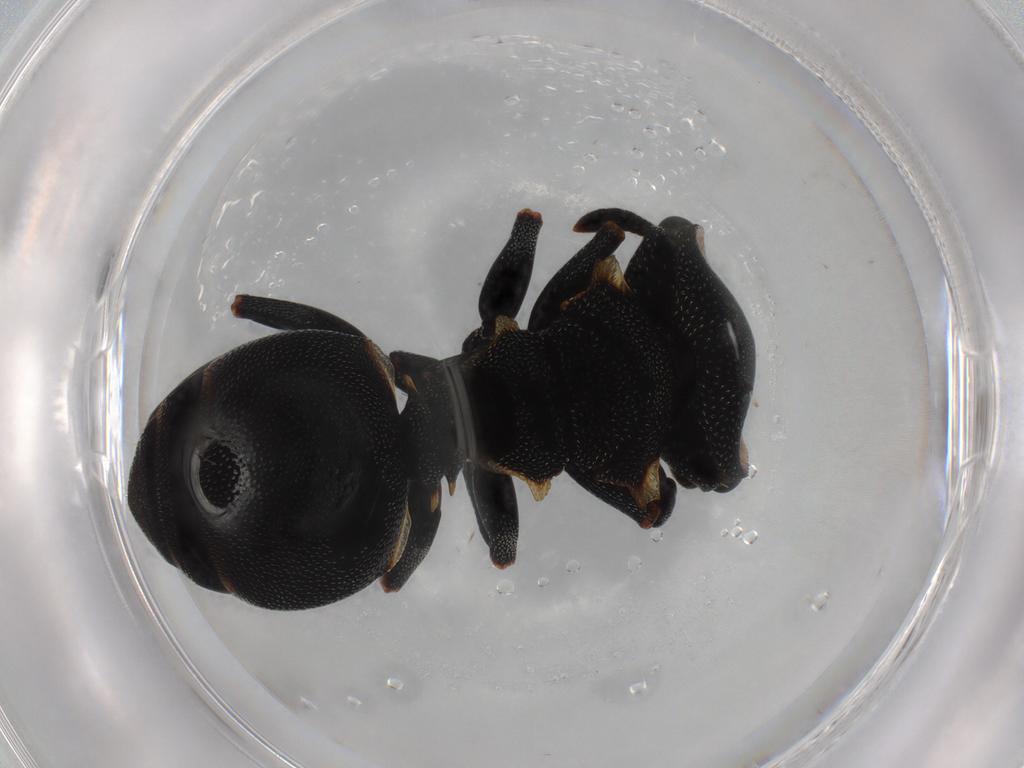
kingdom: Animalia
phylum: Arthropoda
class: Insecta
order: Hymenoptera
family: Formicidae
